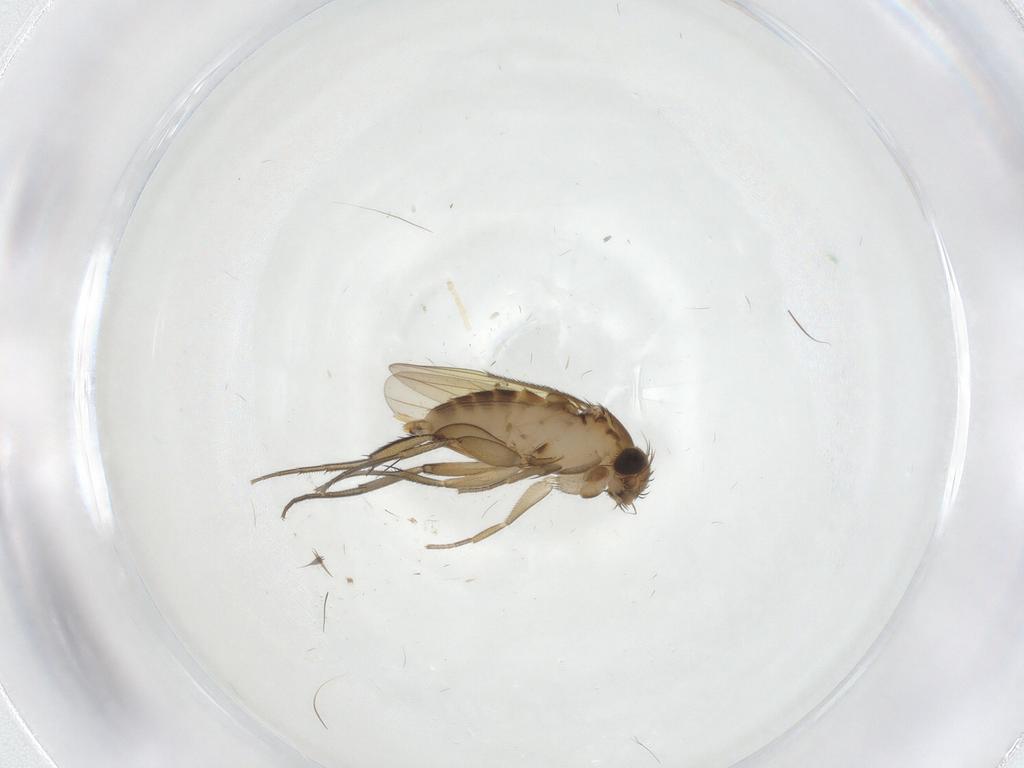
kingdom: Animalia
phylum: Arthropoda
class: Insecta
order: Diptera
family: Phoridae
